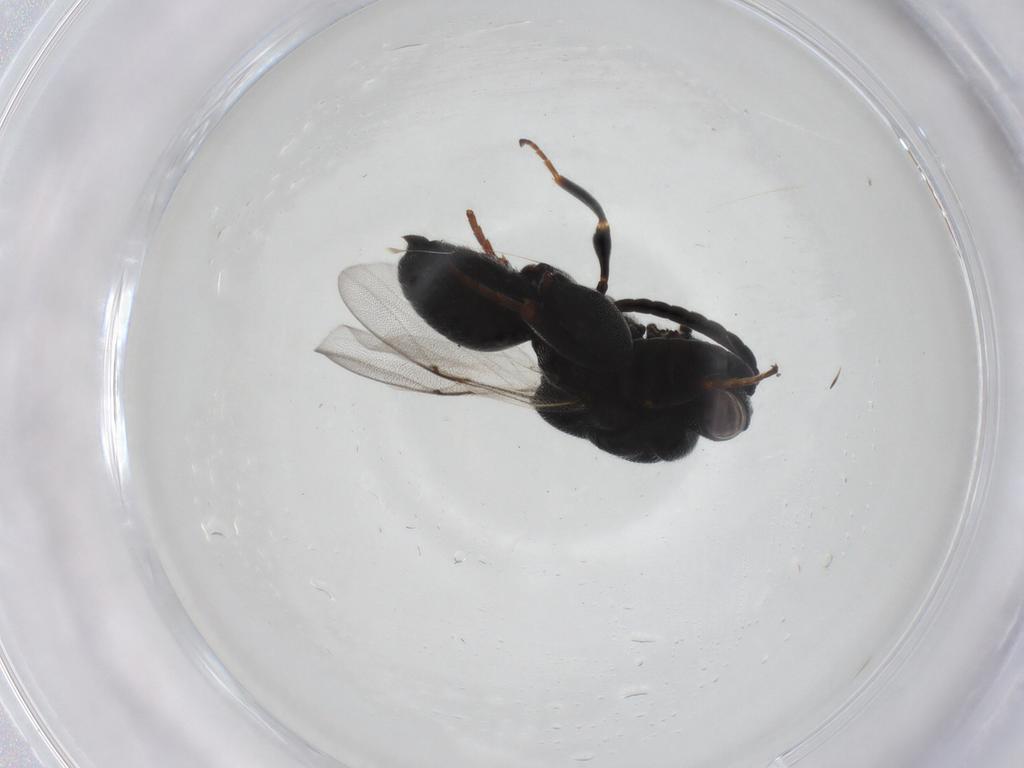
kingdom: Animalia
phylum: Arthropoda
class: Insecta
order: Hymenoptera
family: Chalcididae
